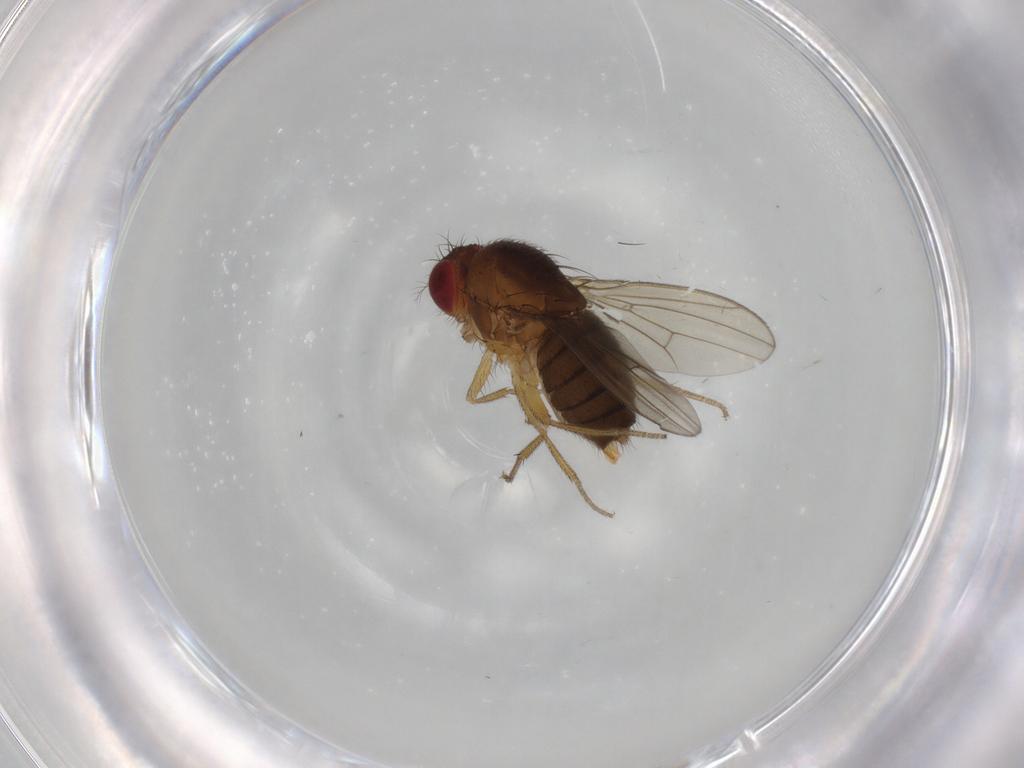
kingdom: Animalia
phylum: Arthropoda
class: Insecta
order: Diptera
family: Drosophilidae
